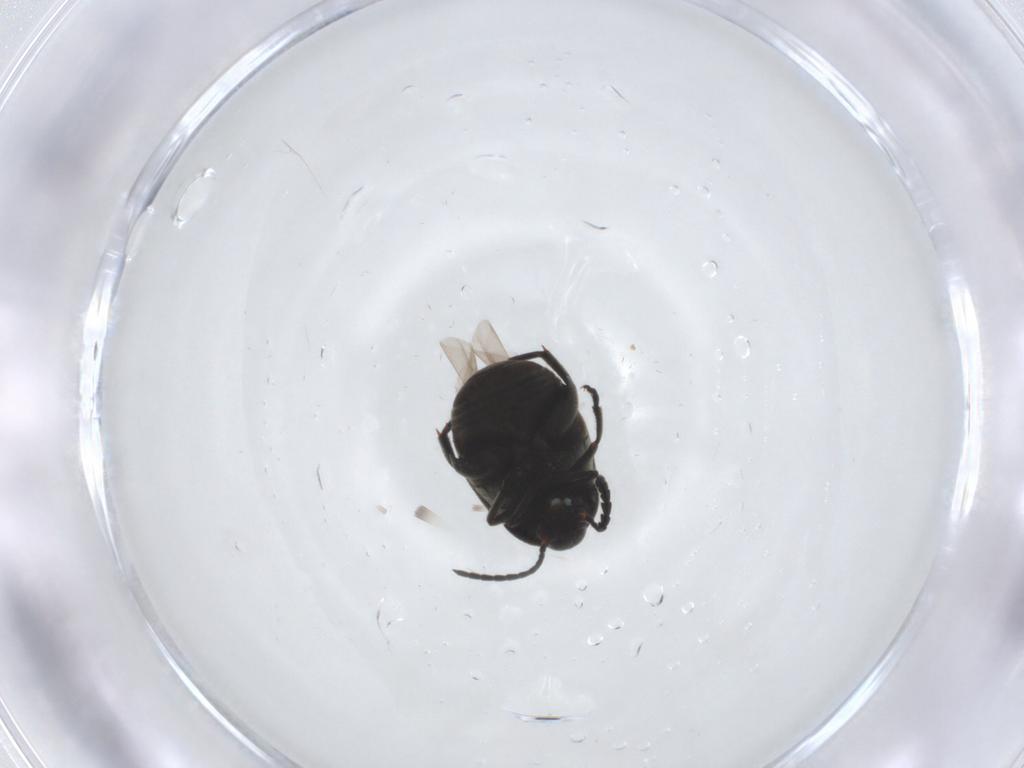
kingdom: Animalia
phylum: Arthropoda
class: Insecta
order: Coleoptera
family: Chrysomelidae
